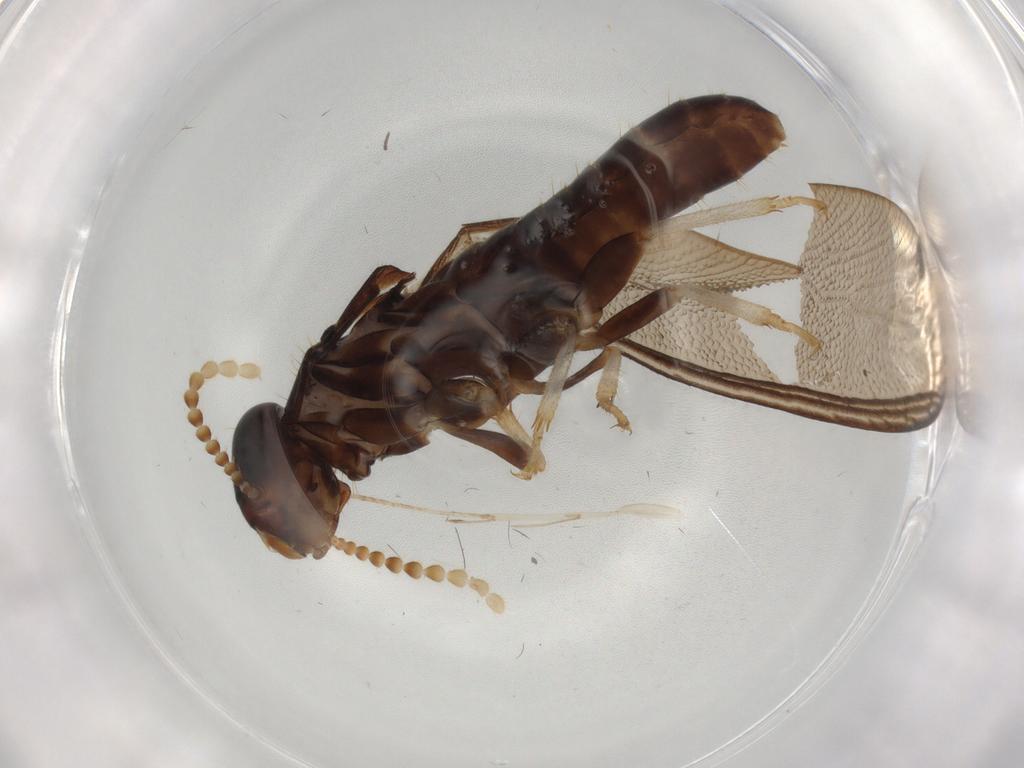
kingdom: Animalia
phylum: Arthropoda
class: Insecta
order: Blattodea
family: Kalotermitidae
